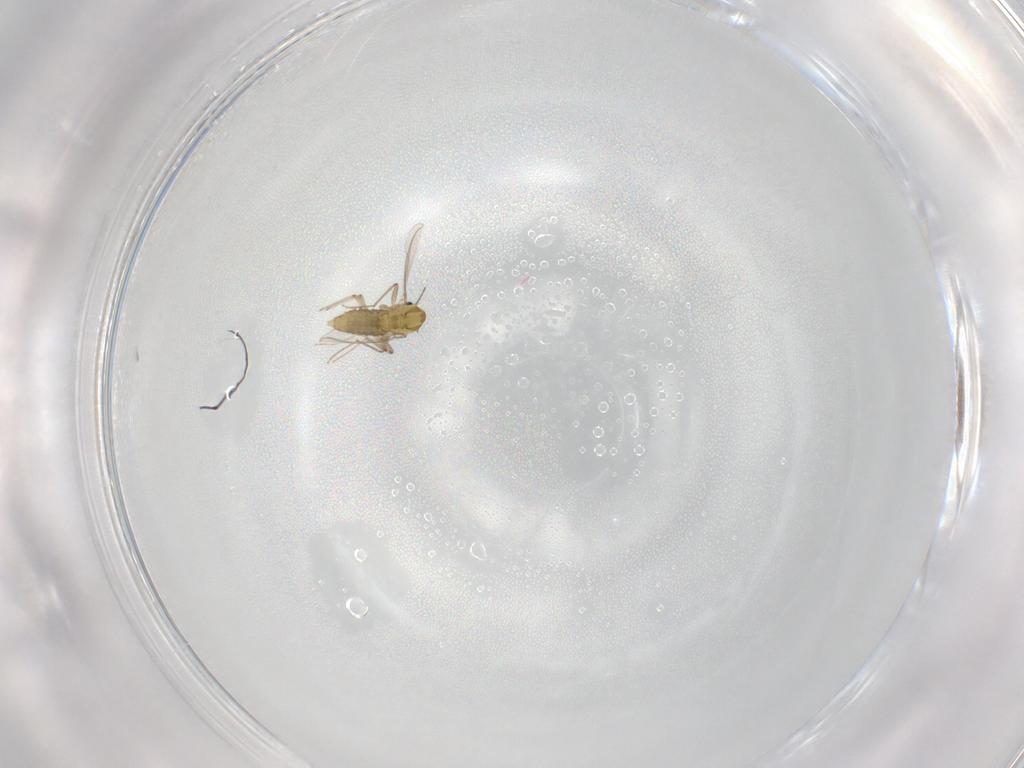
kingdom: Animalia
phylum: Arthropoda
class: Insecta
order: Diptera
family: Chironomidae
